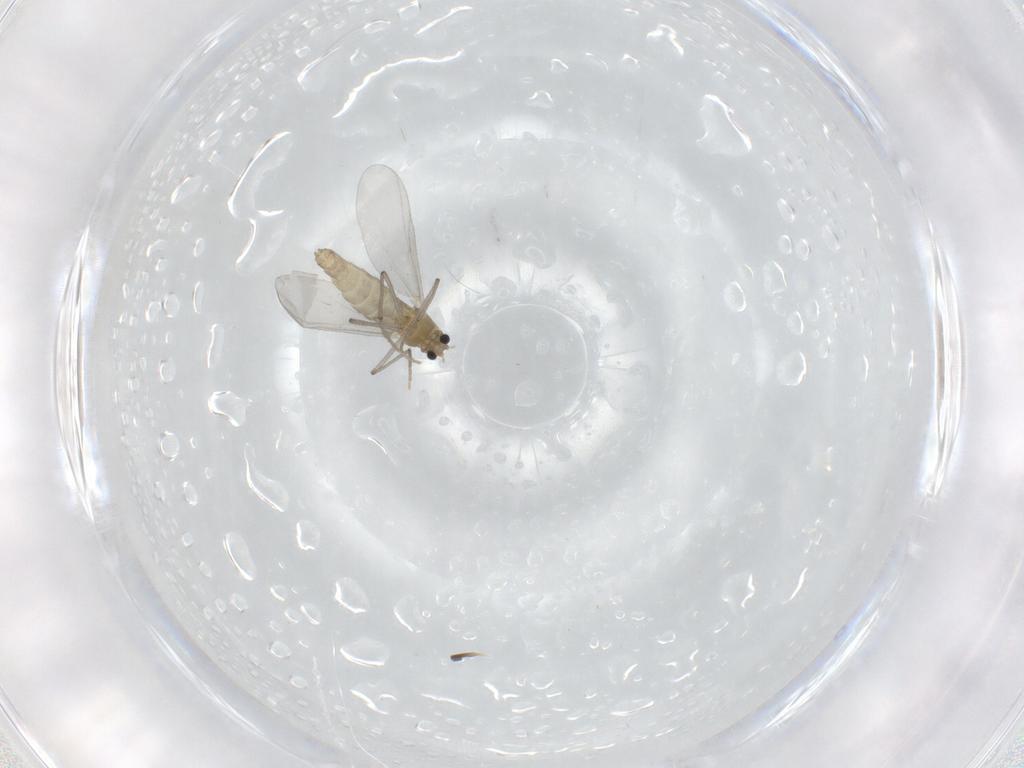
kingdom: Animalia
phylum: Arthropoda
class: Insecta
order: Diptera
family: Chironomidae
